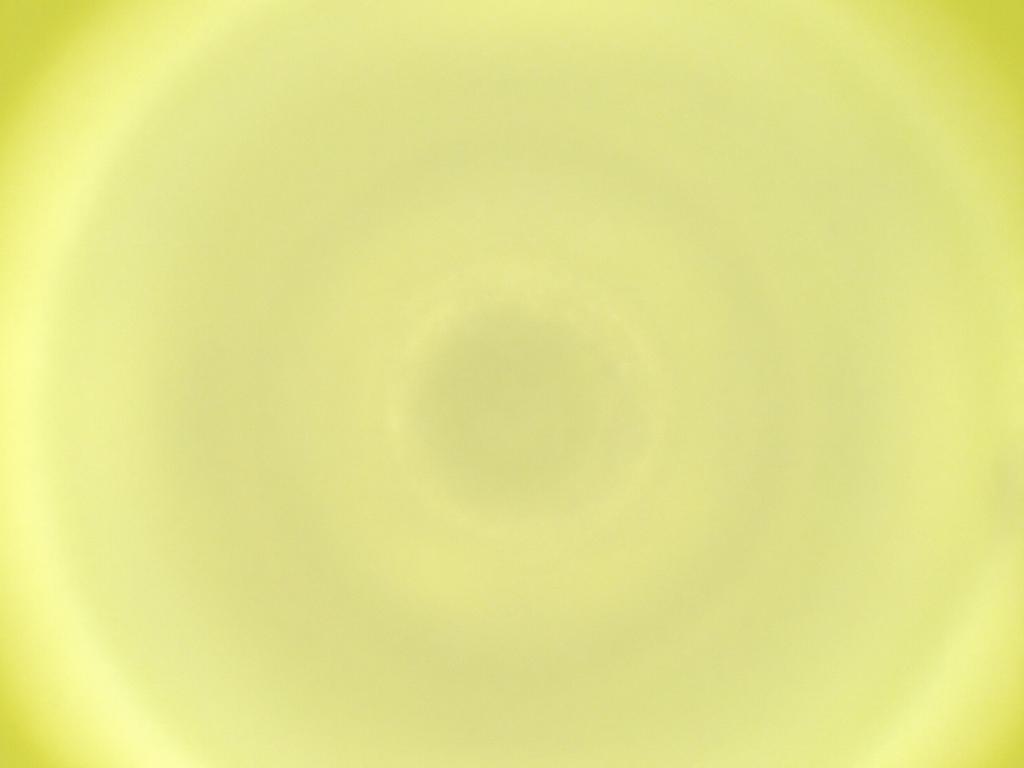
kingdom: Animalia
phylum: Arthropoda
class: Insecta
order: Diptera
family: Cecidomyiidae
